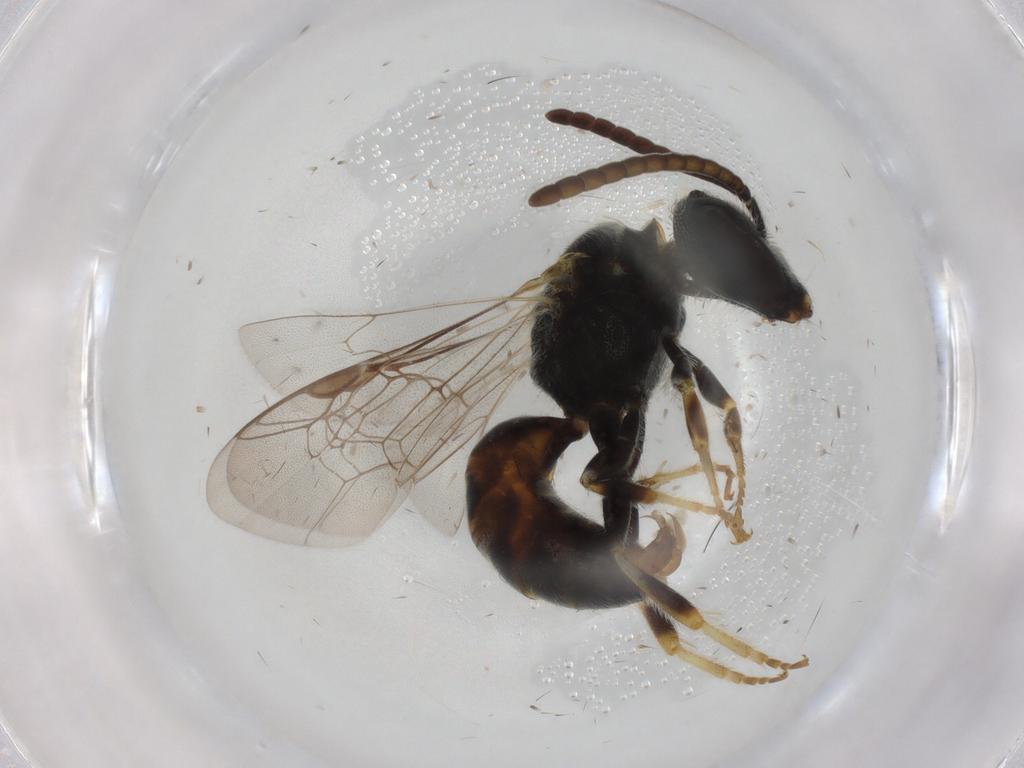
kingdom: Animalia
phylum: Arthropoda
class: Insecta
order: Hymenoptera
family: Halictidae
